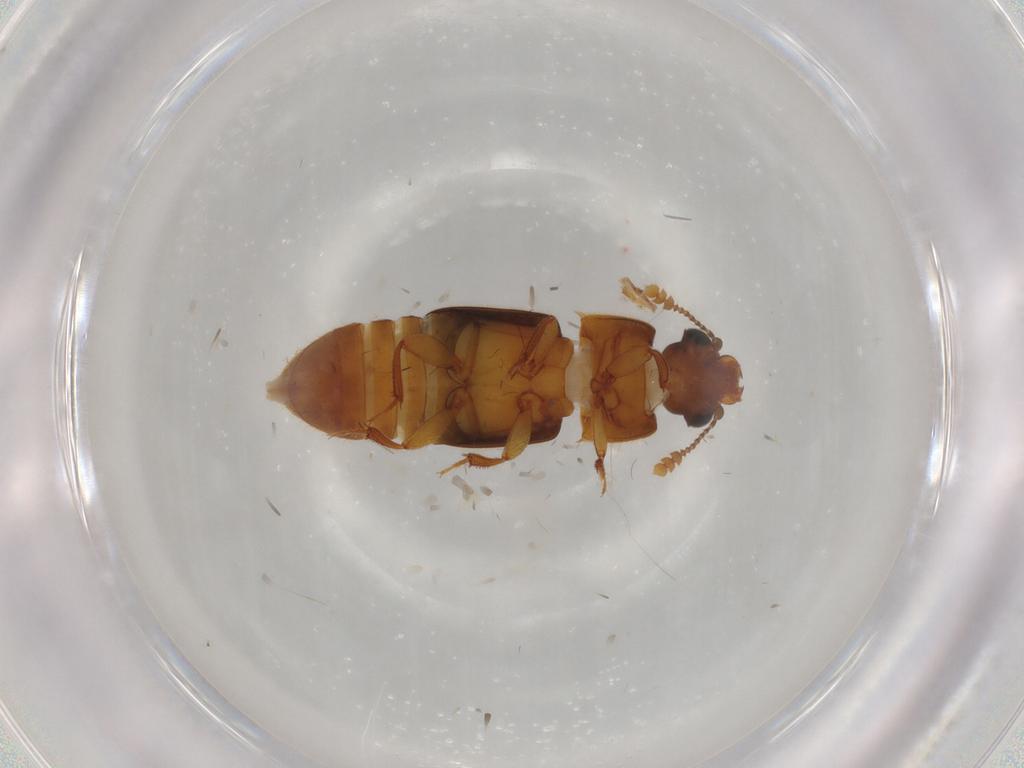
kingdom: Animalia
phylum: Arthropoda
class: Insecta
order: Coleoptera
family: Nitidulidae
